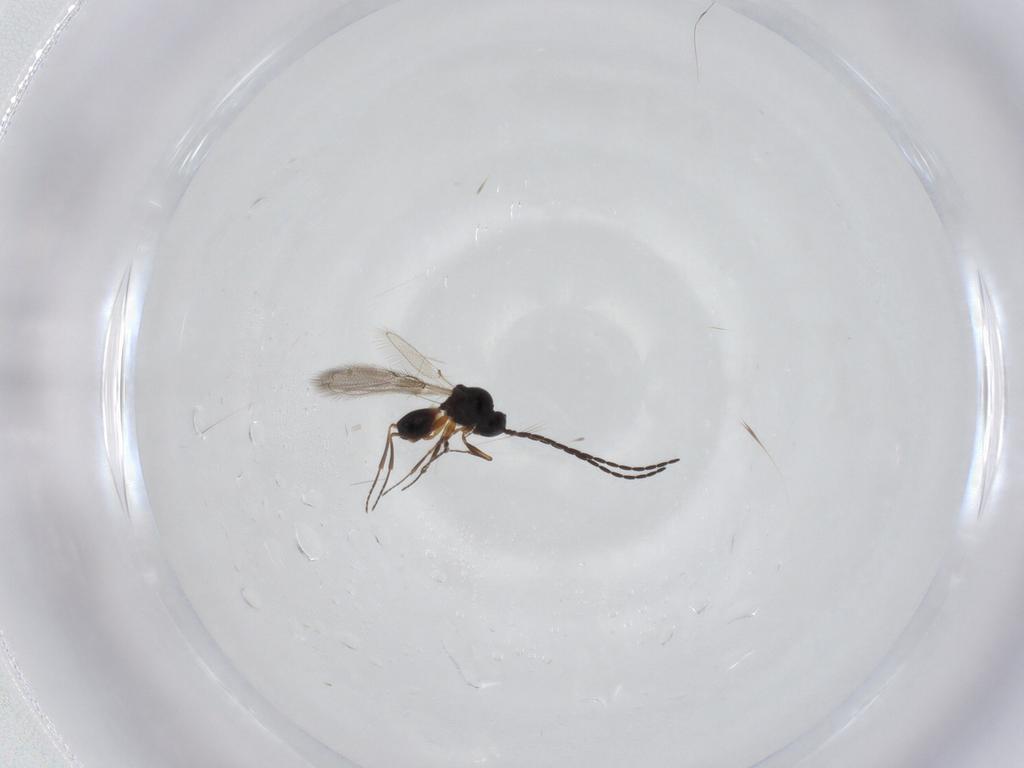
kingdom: Animalia
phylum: Arthropoda
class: Insecta
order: Hymenoptera
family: Figitidae
